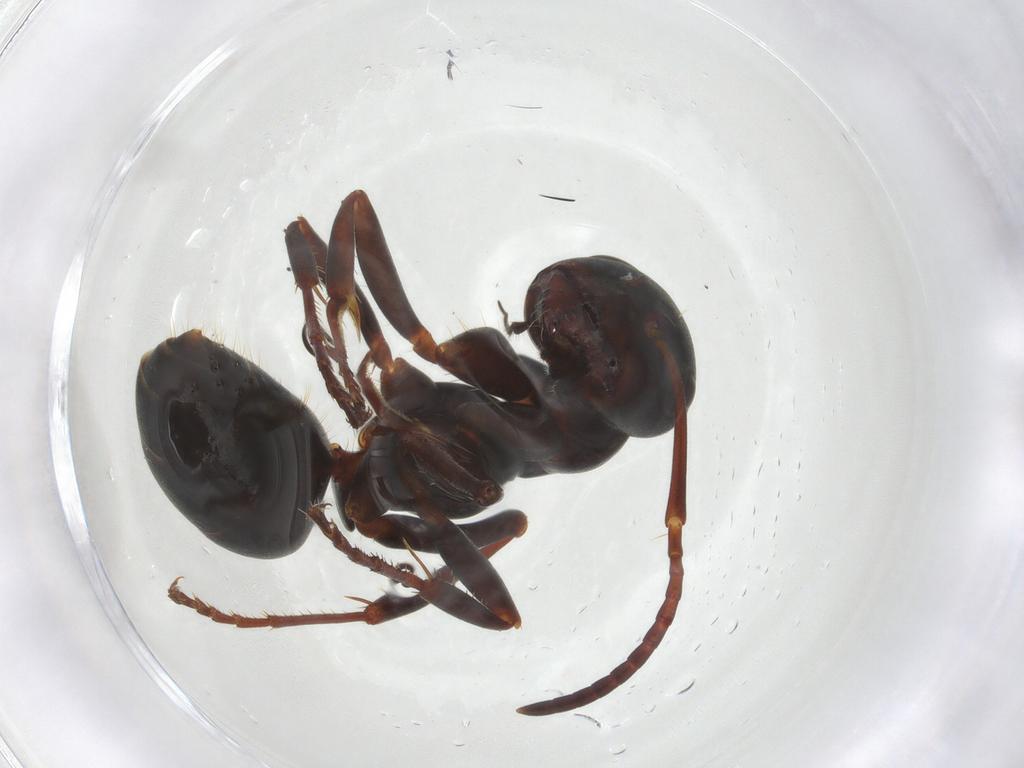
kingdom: Animalia
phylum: Arthropoda
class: Insecta
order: Hymenoptera
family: Formicidae
